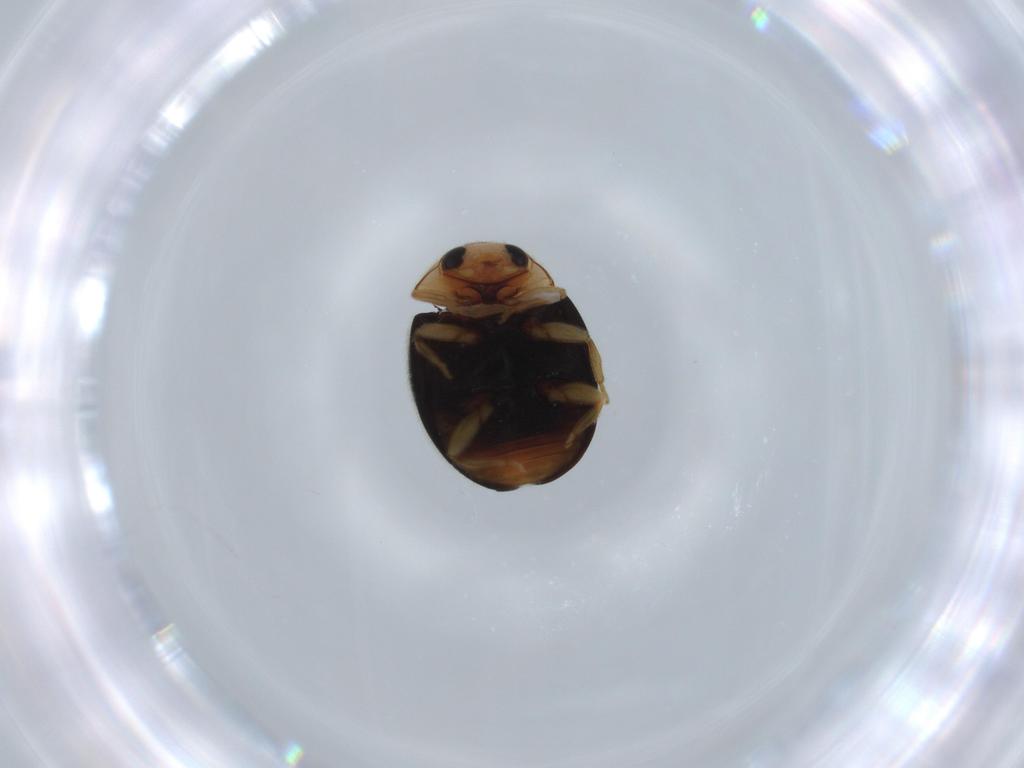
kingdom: Animalia
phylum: Arthropoda
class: Insecta
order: Coleoptera
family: Coccinellidae
